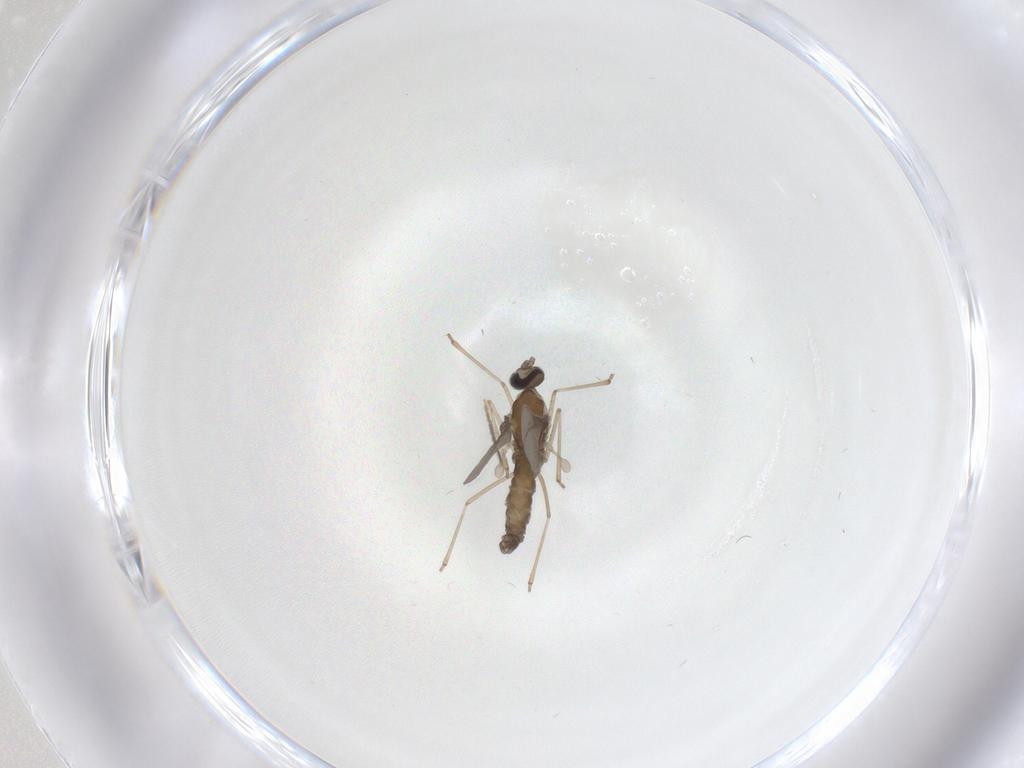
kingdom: Animalia
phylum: Arthropoda
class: Insecta
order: Diptera
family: Chironomidae
